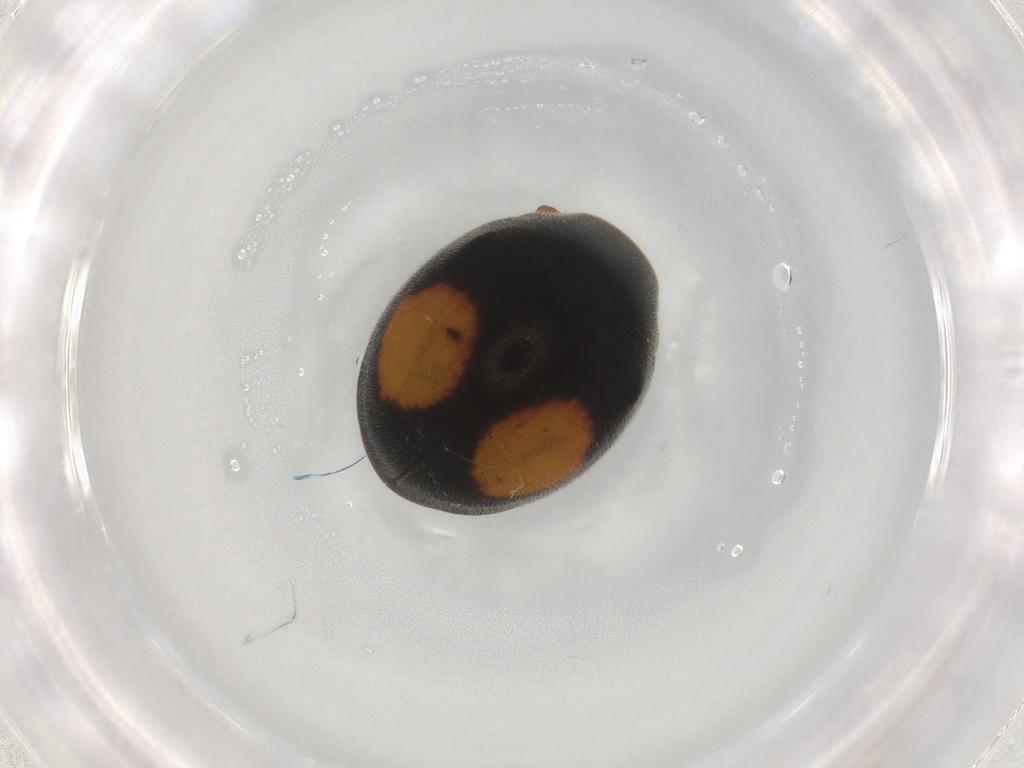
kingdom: Animalia
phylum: Arthropoda
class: Insecta
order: Coleoptera
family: Coccinellidae
